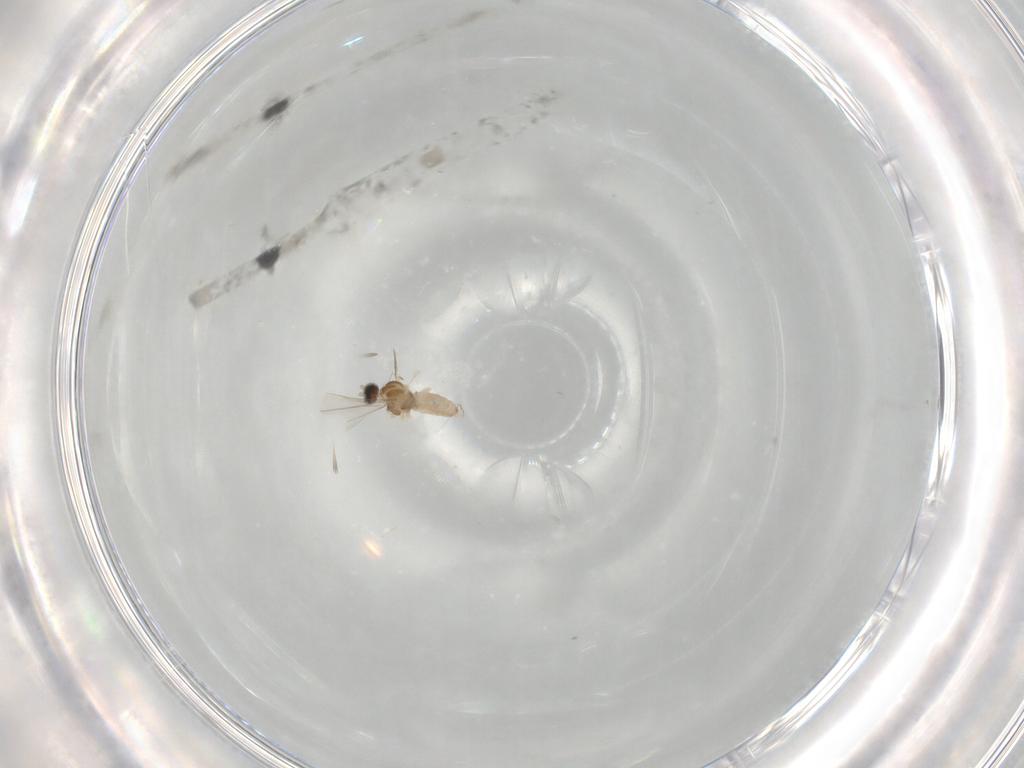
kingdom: Animalia
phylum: Arthropoda
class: Insecta
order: Diptera
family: Cecidomyiidae
